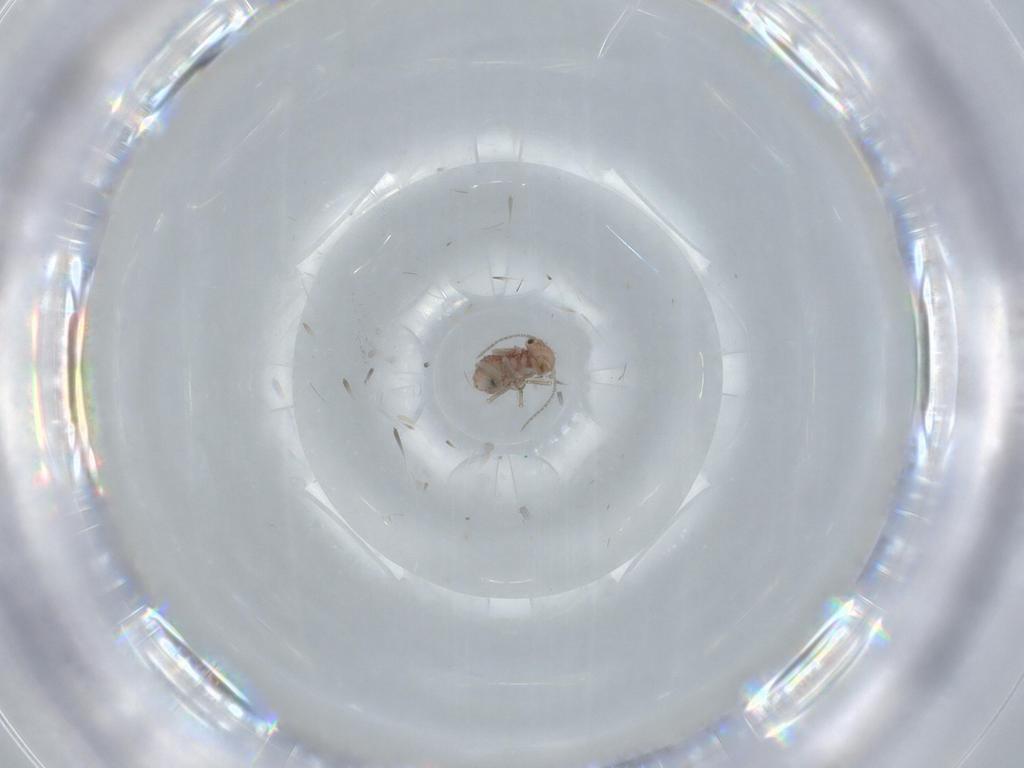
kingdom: Animalia
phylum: Arthropoda
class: Insecta
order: Psocodea
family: Ectopsocidae
